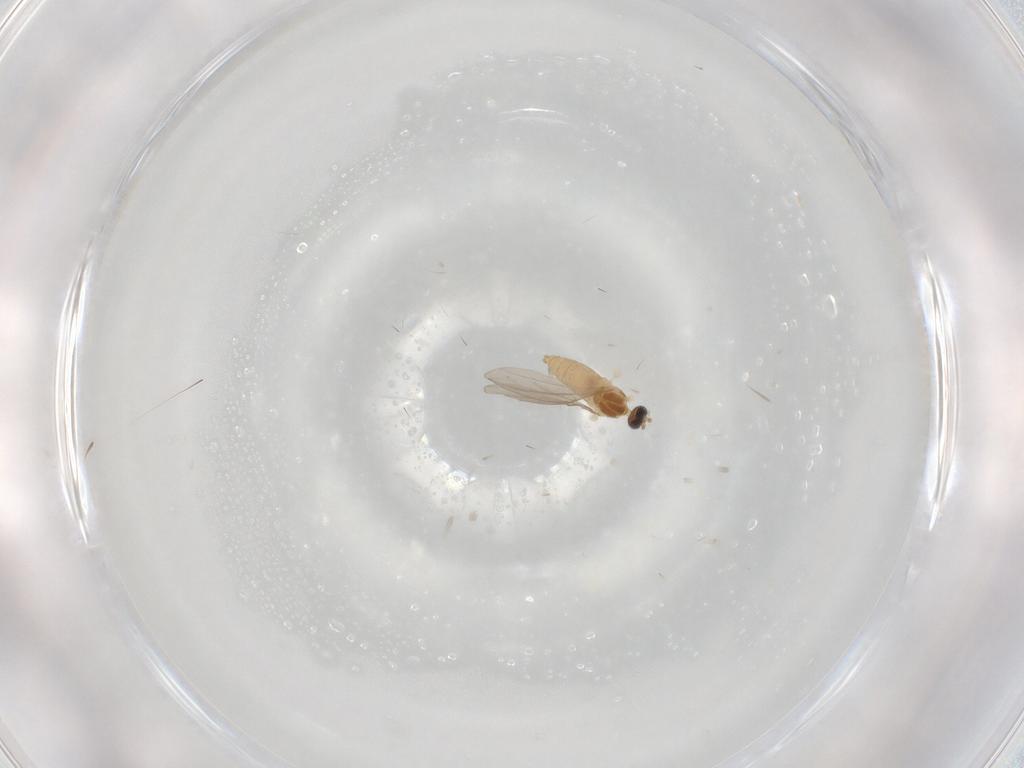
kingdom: Animalia
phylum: Arthropoda
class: Insecta
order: Diptera
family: Cecidomyiidae
